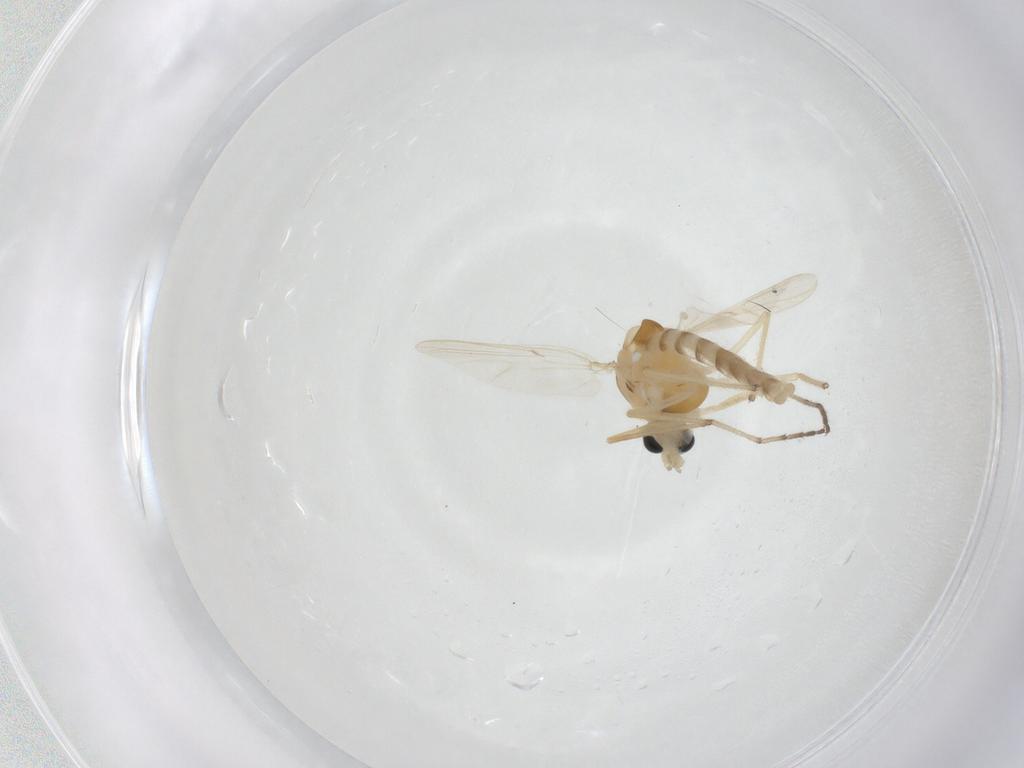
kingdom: Animalia
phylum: Arthropoda
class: Insecta
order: Diptera
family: Chironomidae
